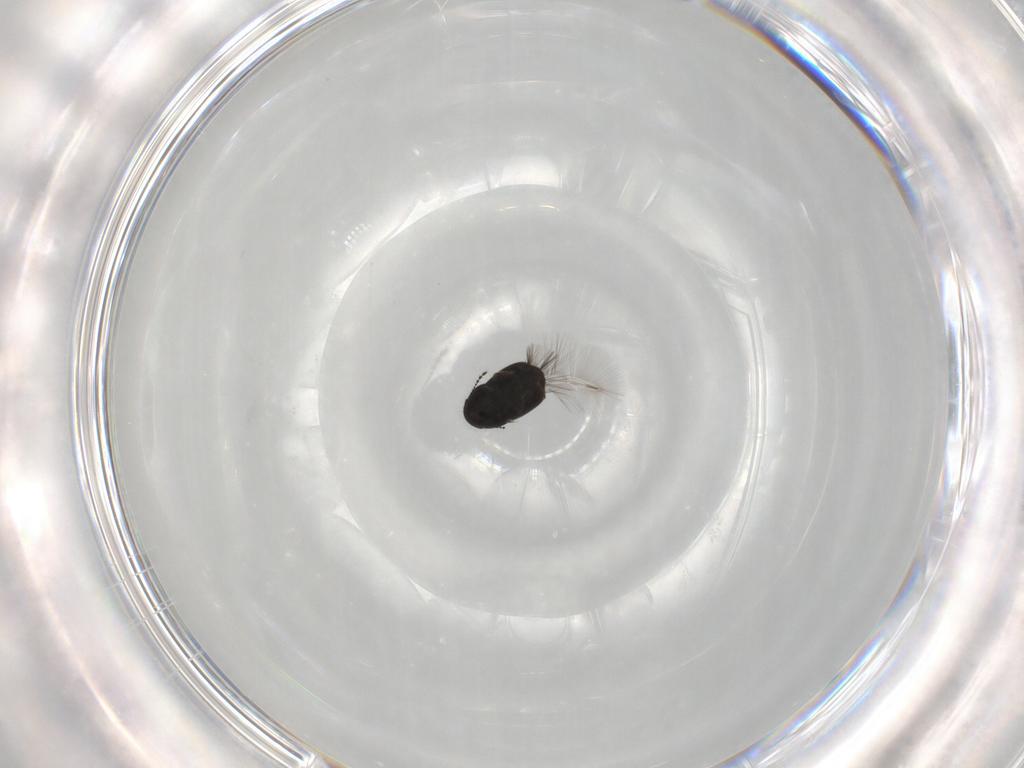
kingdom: Animalia
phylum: Arthropoda
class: Insecta
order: Coleoptera
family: Ptiliidae
